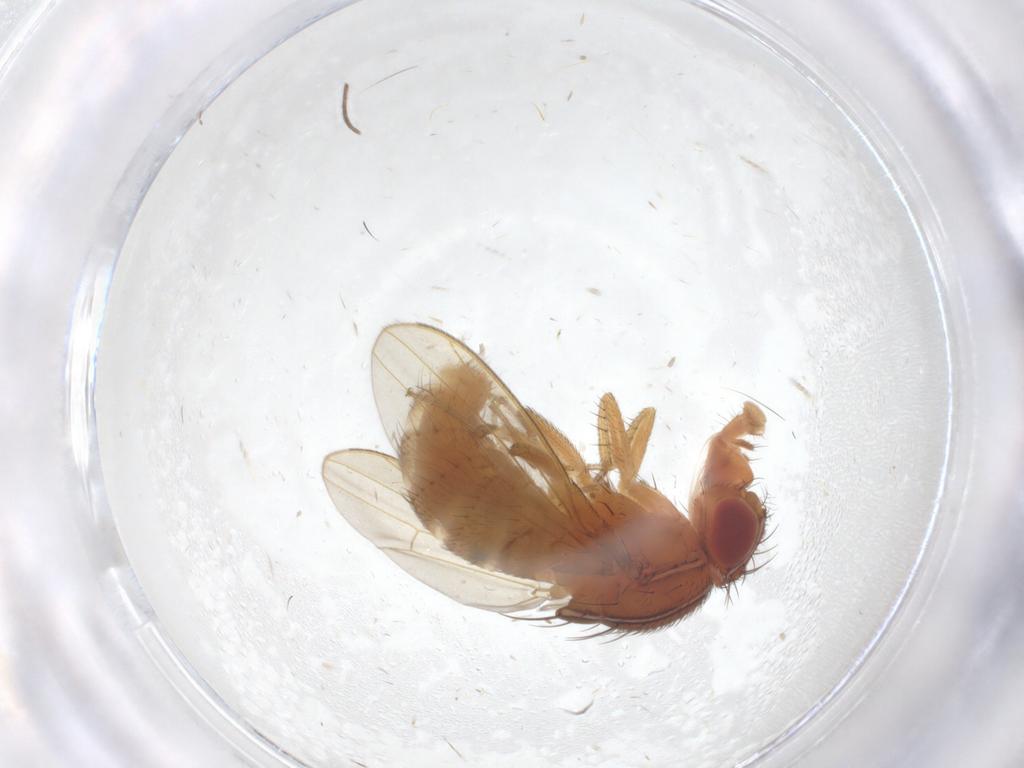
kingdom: Animalia
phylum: Arthropoda
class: Insecta
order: Diptera
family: Drosophilidae
